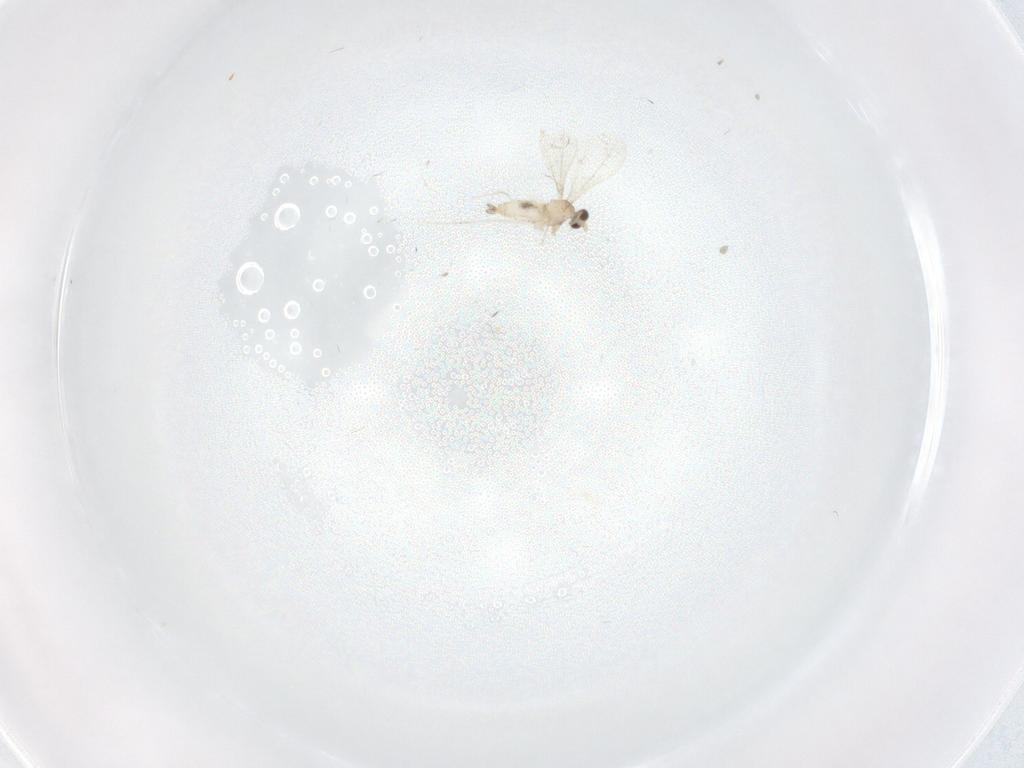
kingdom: Animalia
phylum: Arthropoda
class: Insecta
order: Diptera
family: Cecidomyiidae
